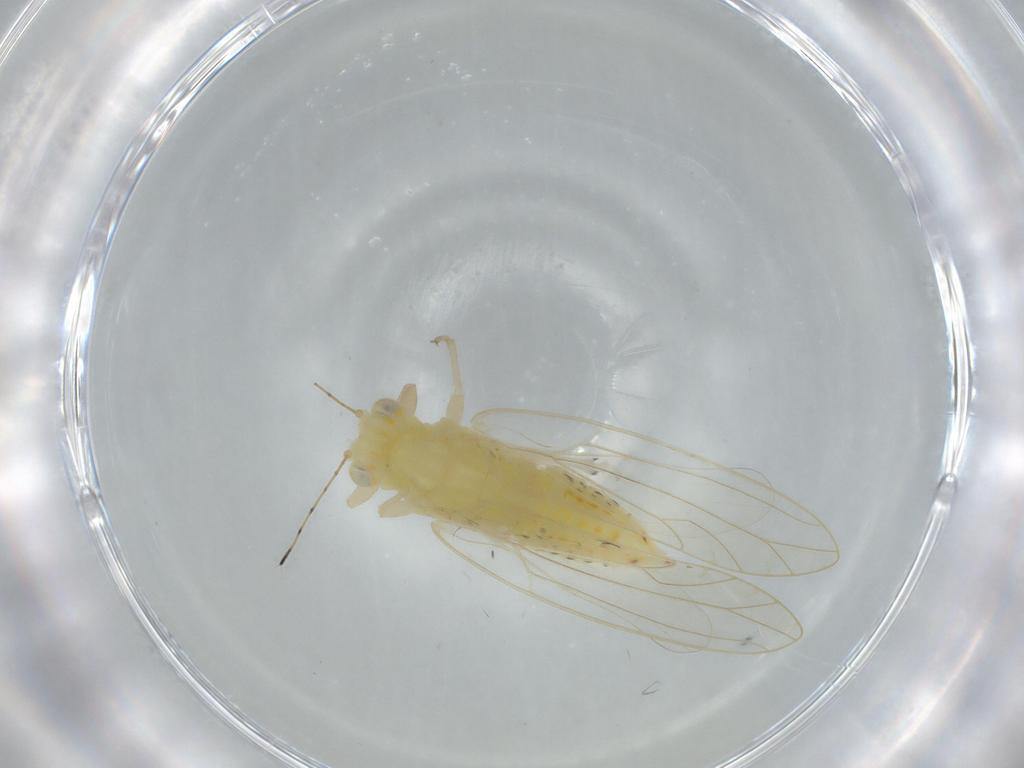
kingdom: Animalia
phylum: Arthropoda
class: Insecta
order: Hemiptera
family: Triozidae
